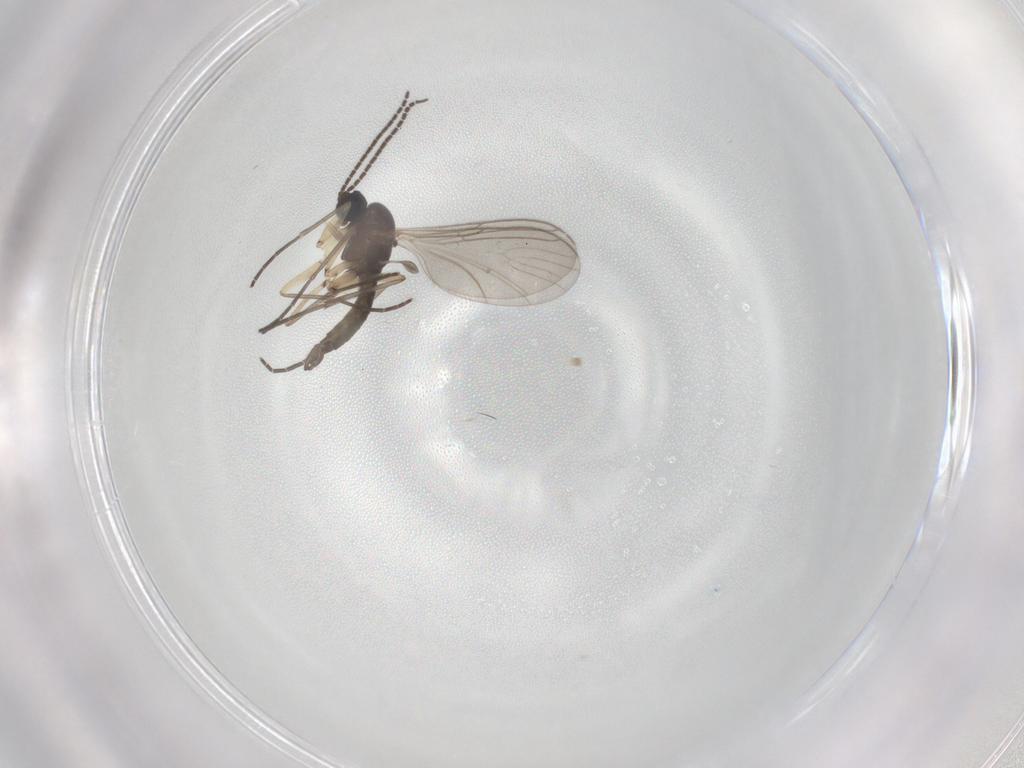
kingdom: Animalia
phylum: Arthropoda
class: Insecta
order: Diptera
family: Sciaridae
